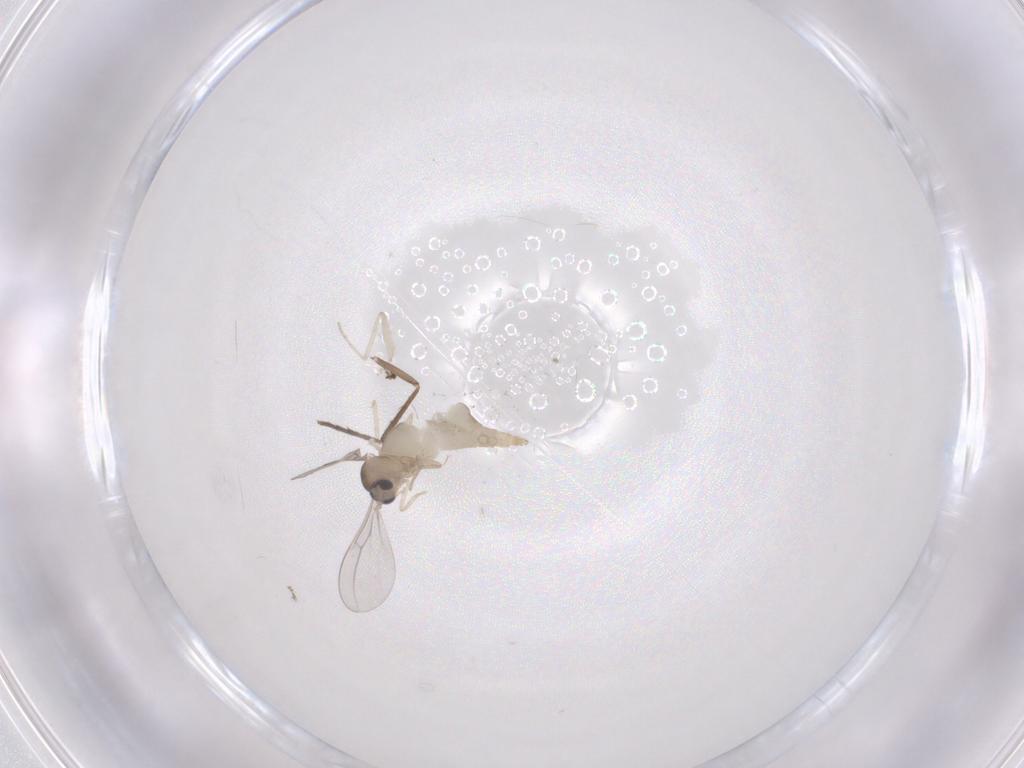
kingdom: Animalia
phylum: Arthropoda
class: Insecta
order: Diptera
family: Cecidomyiidae
